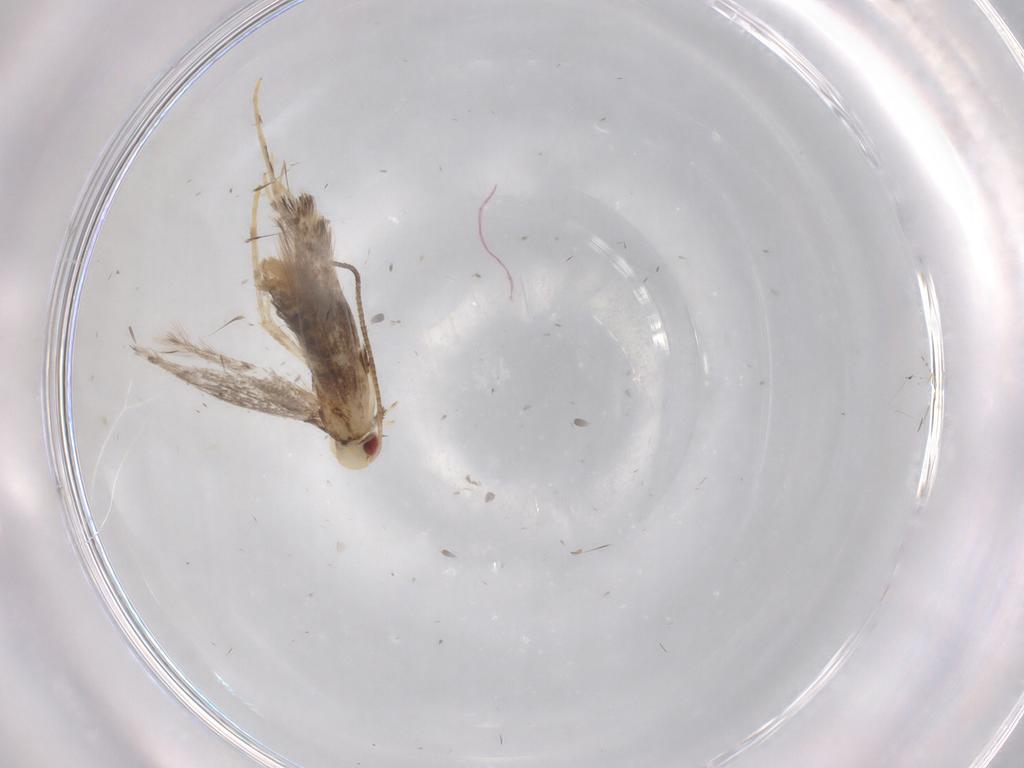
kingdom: Animalia
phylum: Arthropoda
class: Insecta
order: Lepidoptera
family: Gracillariidae
